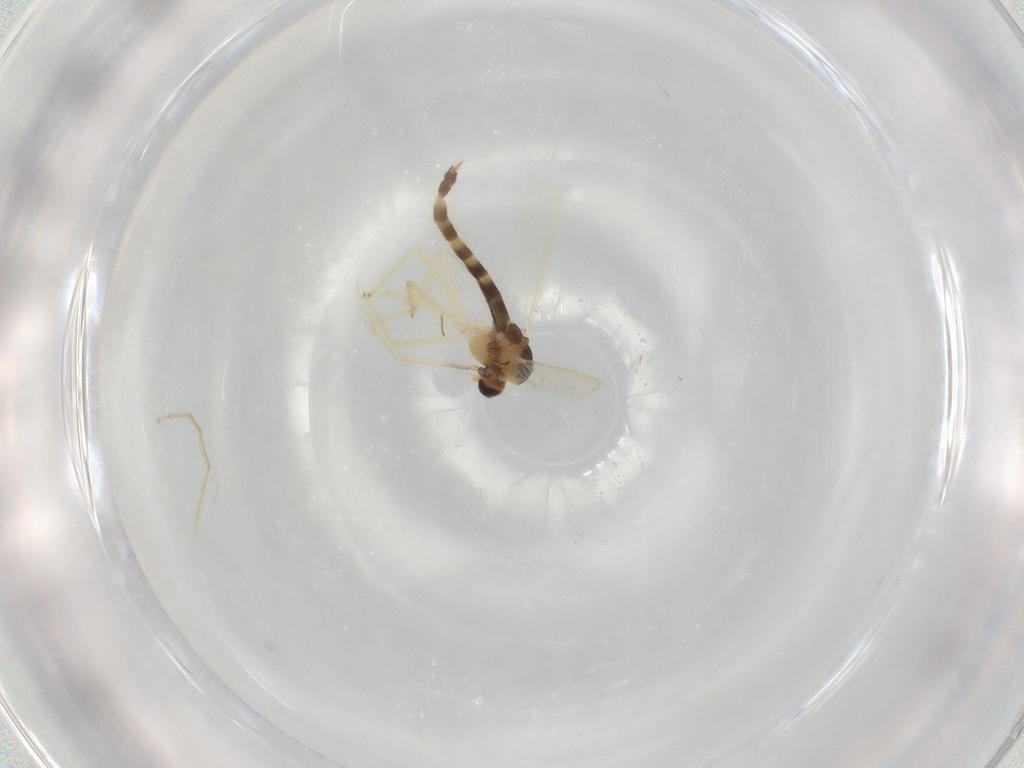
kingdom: Animalia
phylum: Arthropoda
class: Insecta
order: Diptera
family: Chironomidae
